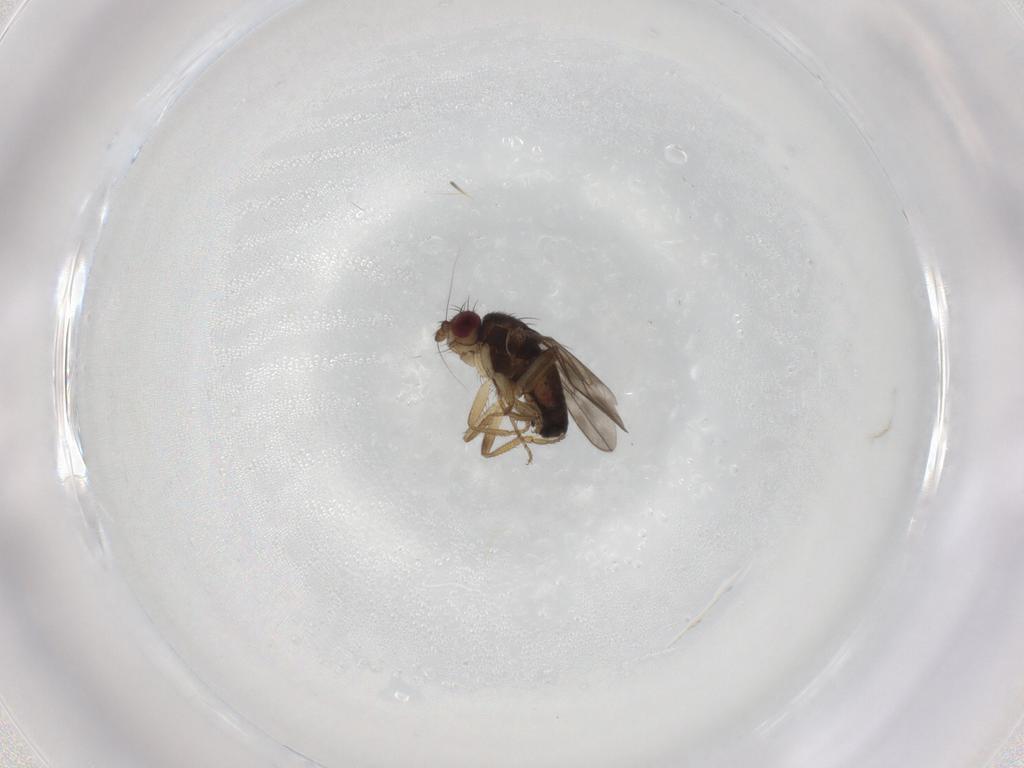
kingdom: Animalia
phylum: Arthropoda
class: Insecta
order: Diptera
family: Sphaeroceridae
